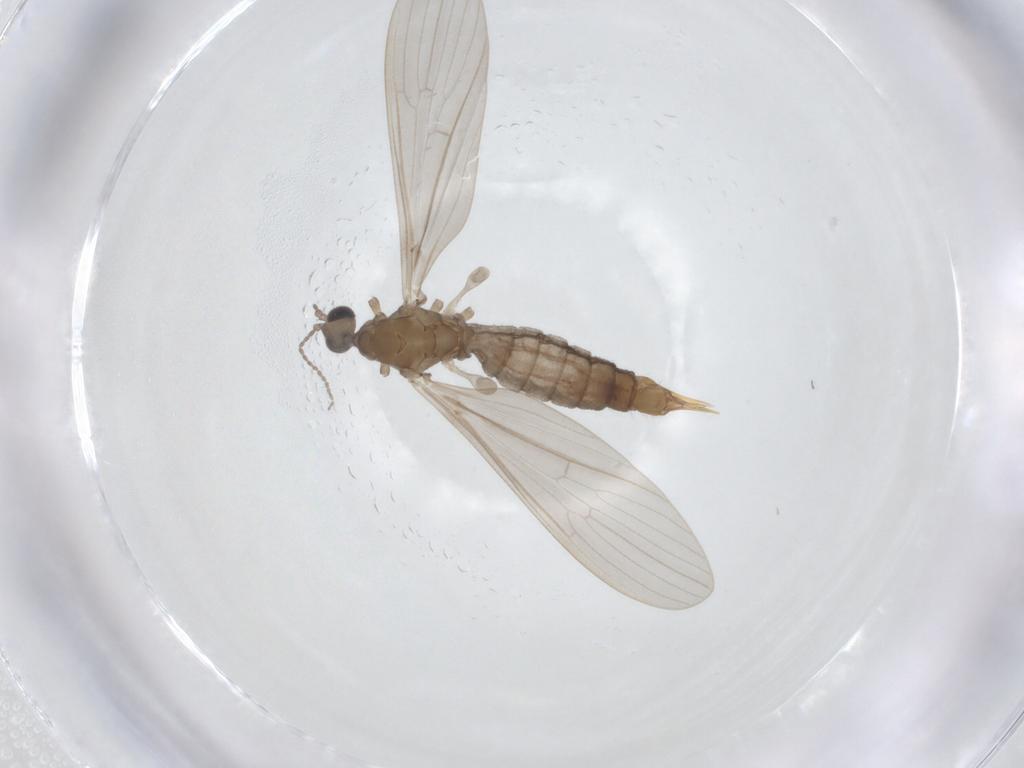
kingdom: Animalia
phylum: Arthropoda
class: Insecta
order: Diptera
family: Limoniidae
